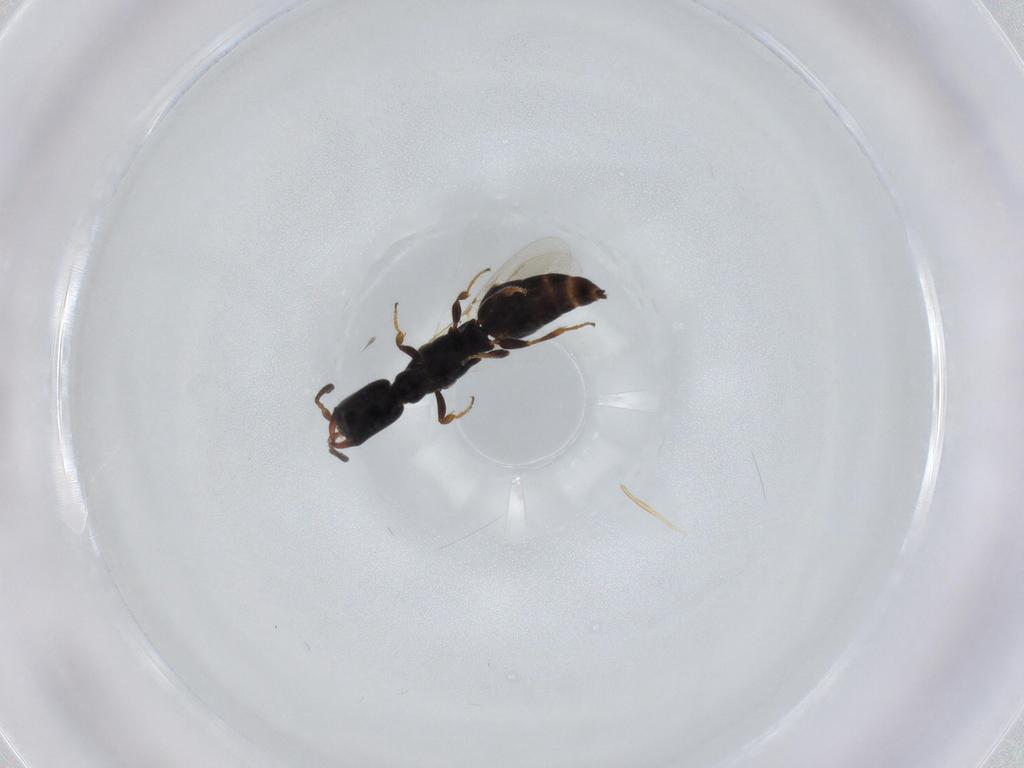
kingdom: Animalia
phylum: Arthropoda
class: Insecta
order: Hymenoptera
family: Bethylidae
